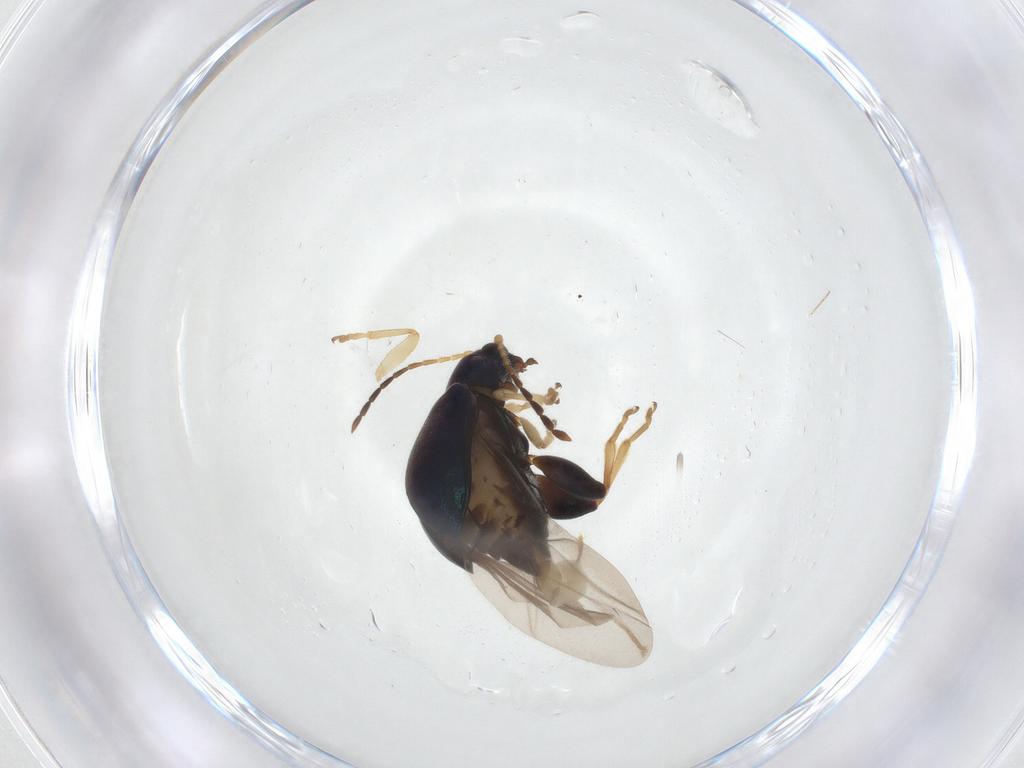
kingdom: Animalia
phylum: Arthropoda
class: Insecta
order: Coleoptera
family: Chrysomelidae
